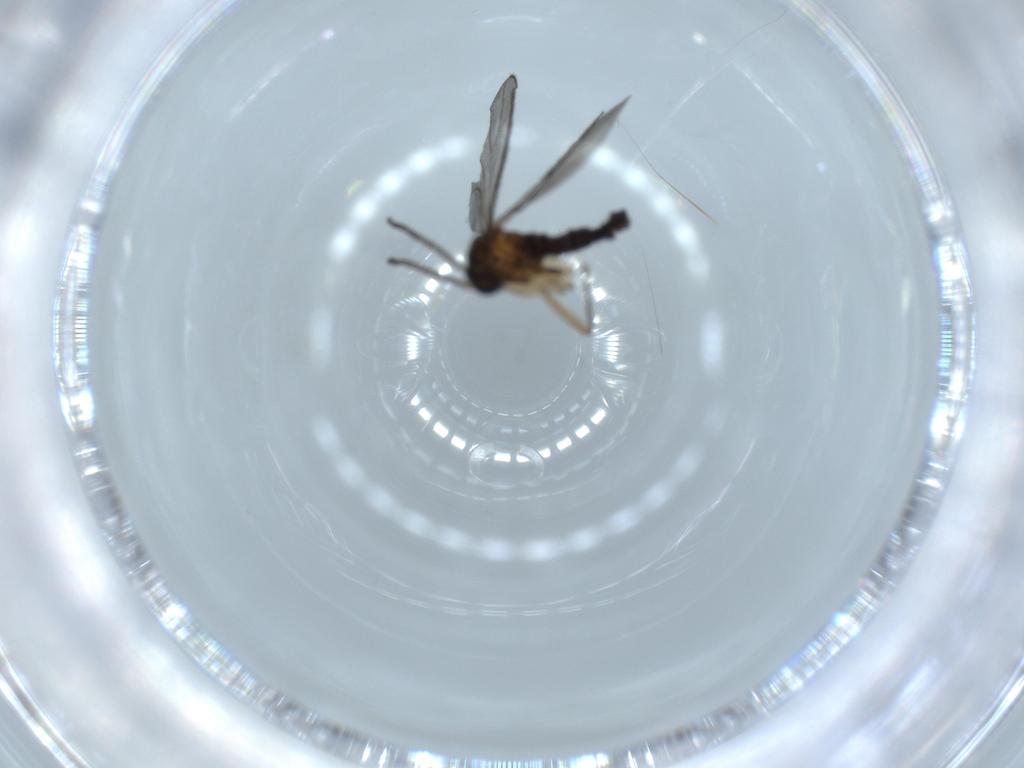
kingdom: Animalia
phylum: Arthropoda
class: Insecta
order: Diptera
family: Sciaridae
